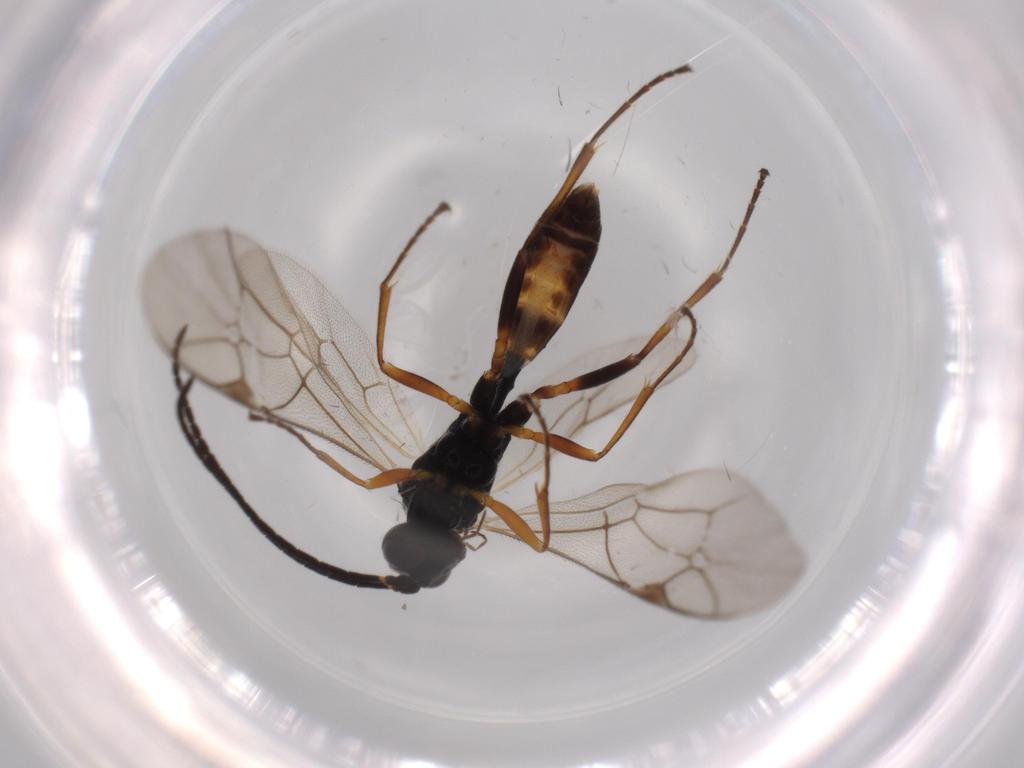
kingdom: Animalia
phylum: Arthropoda
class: Insecta
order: Hymenoptera
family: Ichneumonidae
